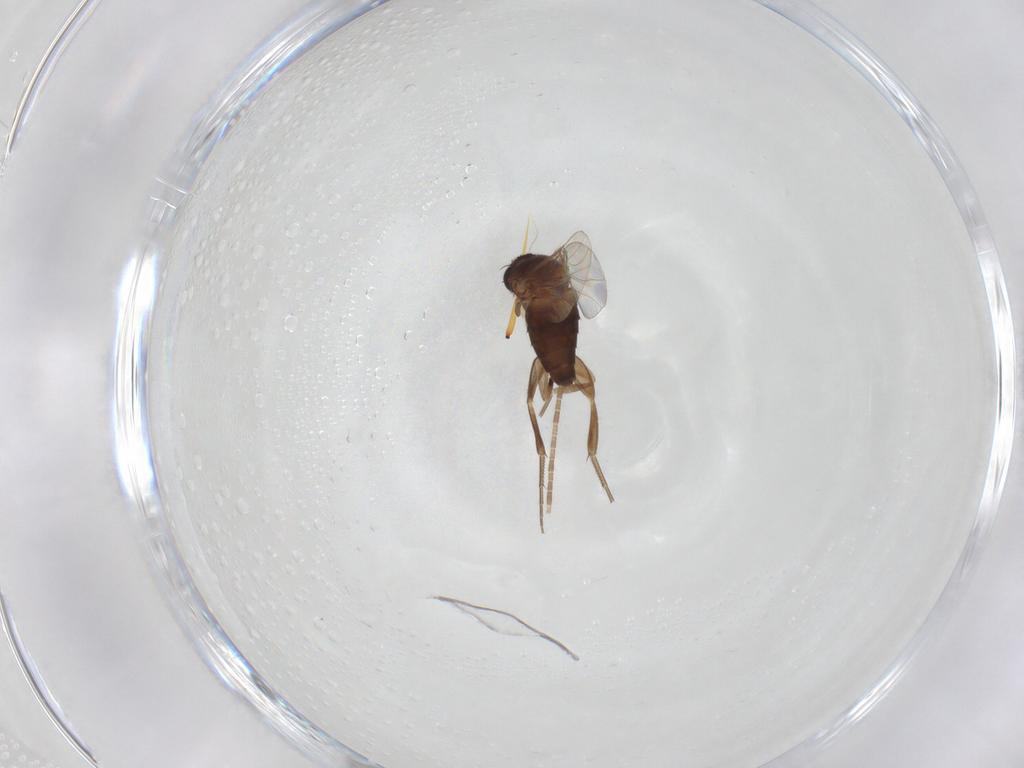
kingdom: Animalia
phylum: Arthropoda
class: Insecta
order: Diptera
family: Phoridae
